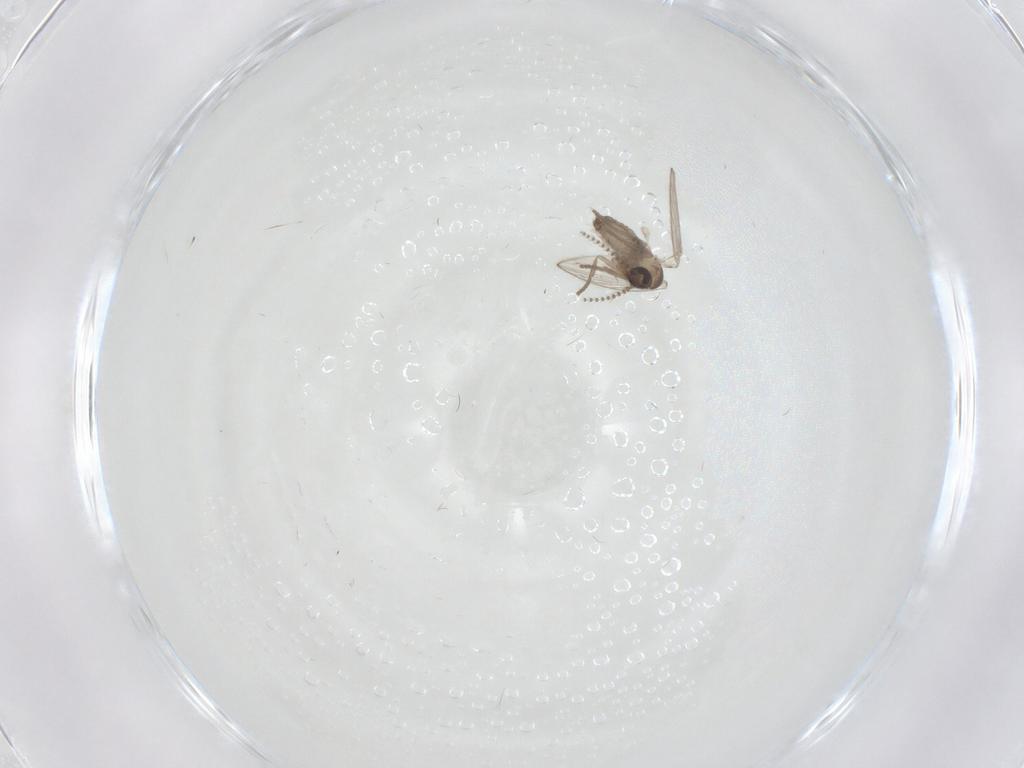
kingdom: Animalia
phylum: Arthropoda
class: Insecta
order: Diptera
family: Psychodidae
